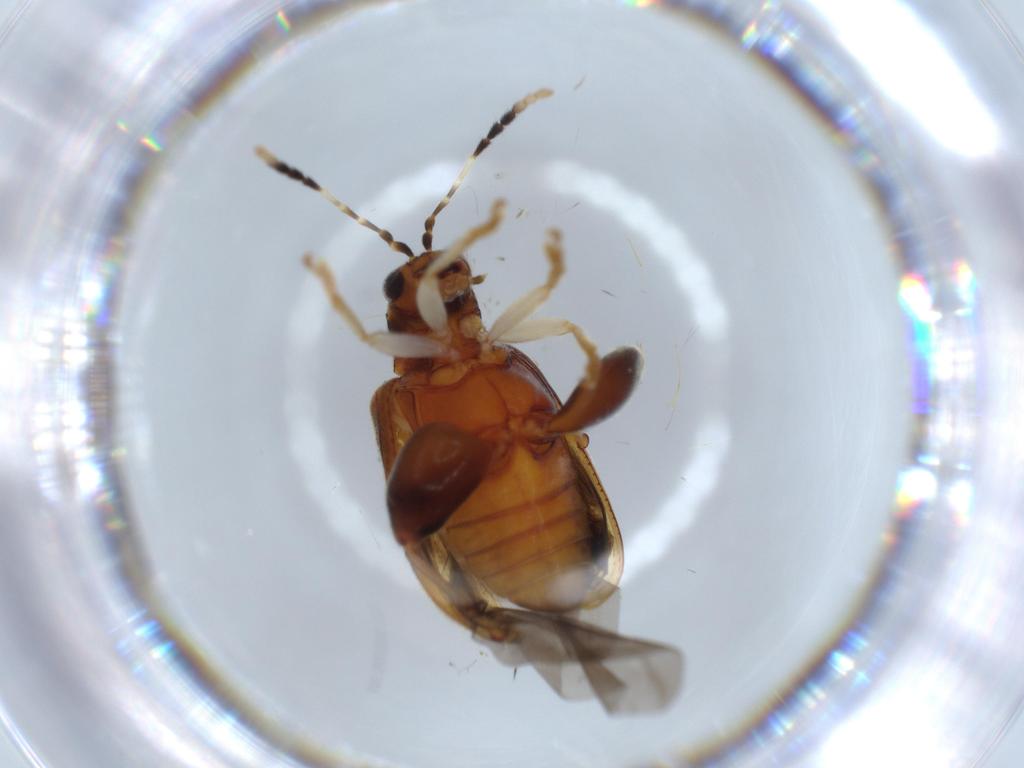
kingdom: Animalia
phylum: Arthropoda
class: Insecta
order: Coleoptera
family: Chrysomelidae
